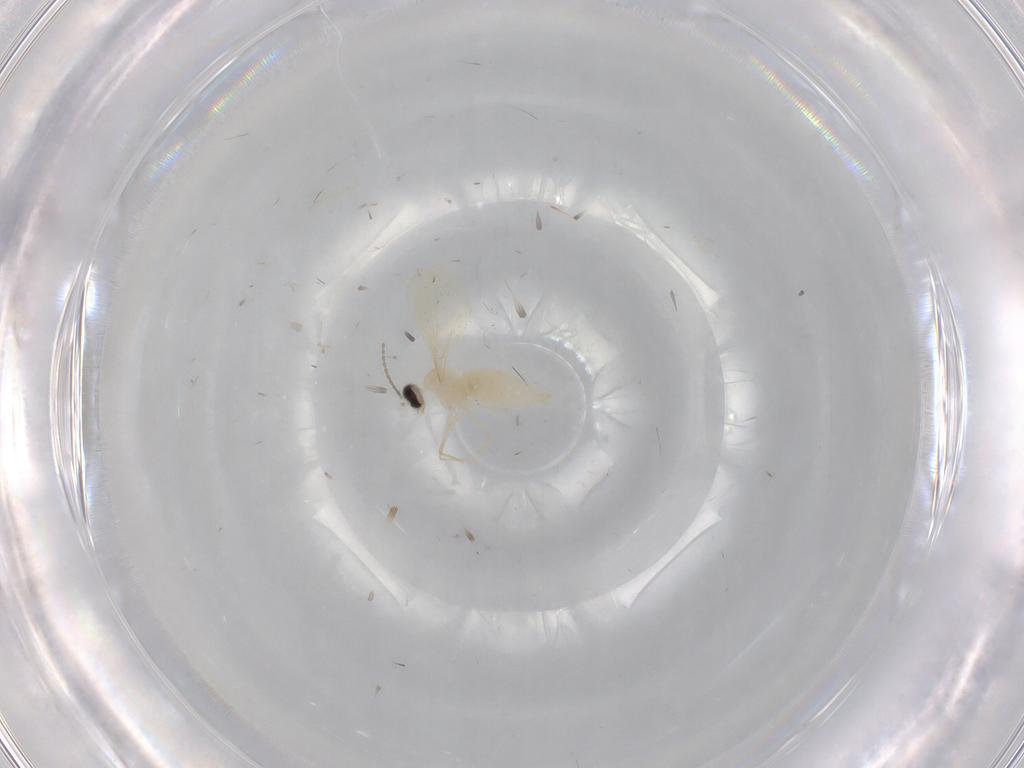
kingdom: Animalia
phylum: Arthropoda
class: Insecta
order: Diptera
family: Cecidomyiidae
